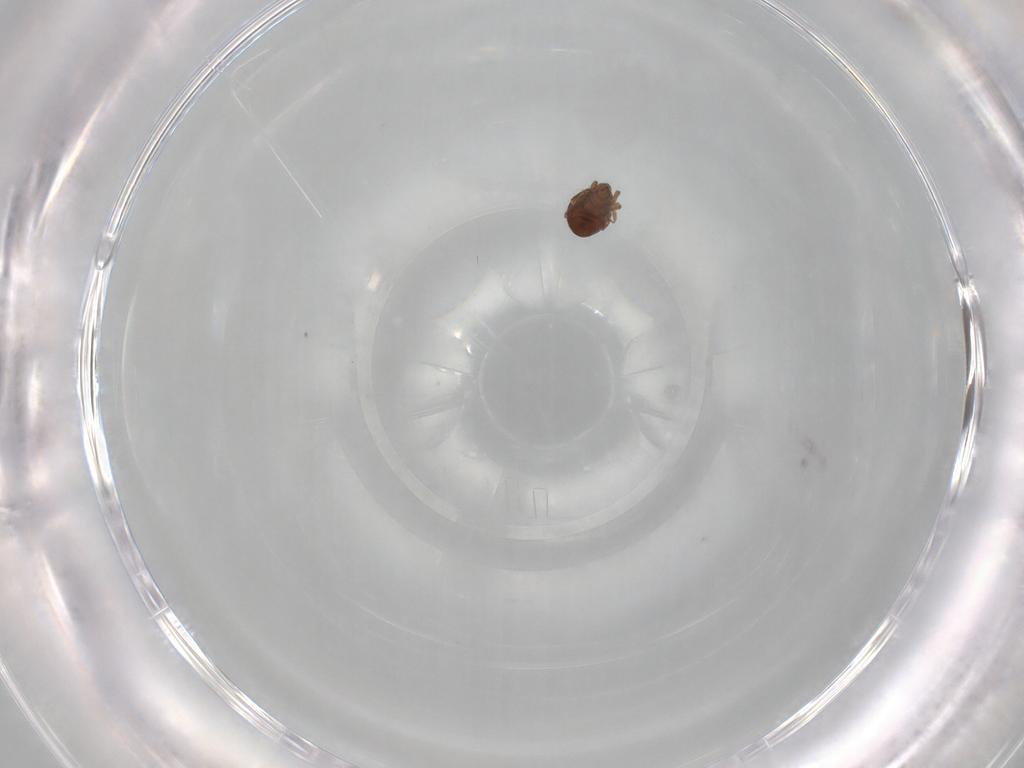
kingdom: Animalia
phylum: Arthropoda
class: Arachnida
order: Sarcoptiformes
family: Oribatulidae
